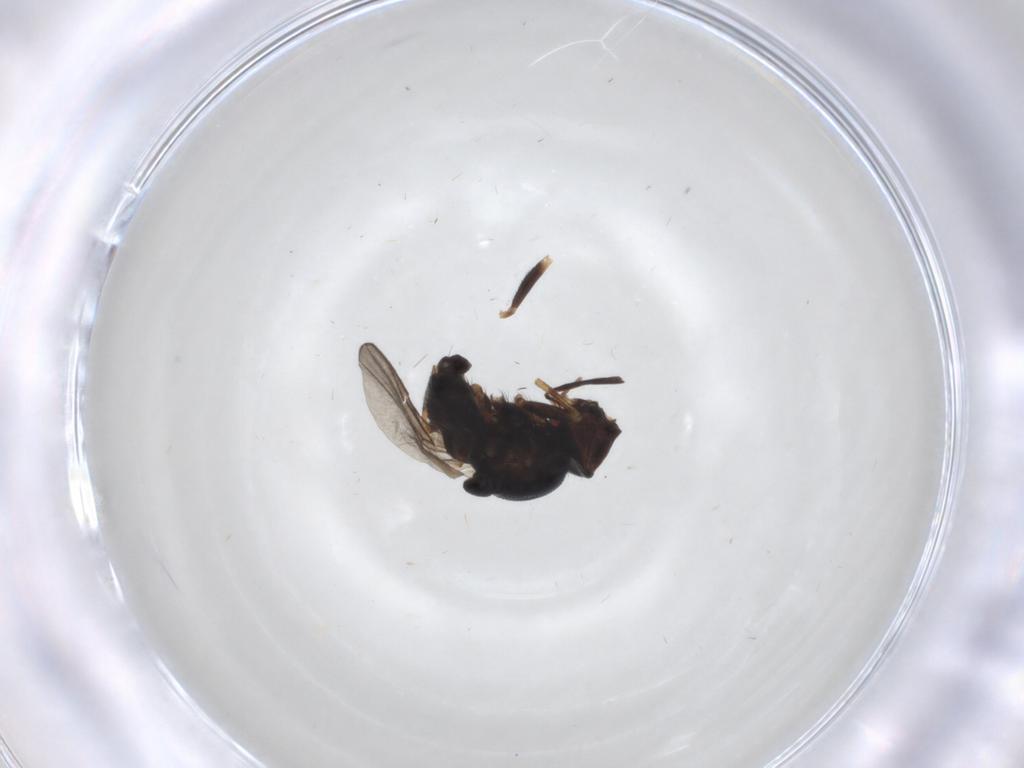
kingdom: Animalia
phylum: Arthropoda
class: Insecta
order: Diptera
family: Chloropidae
